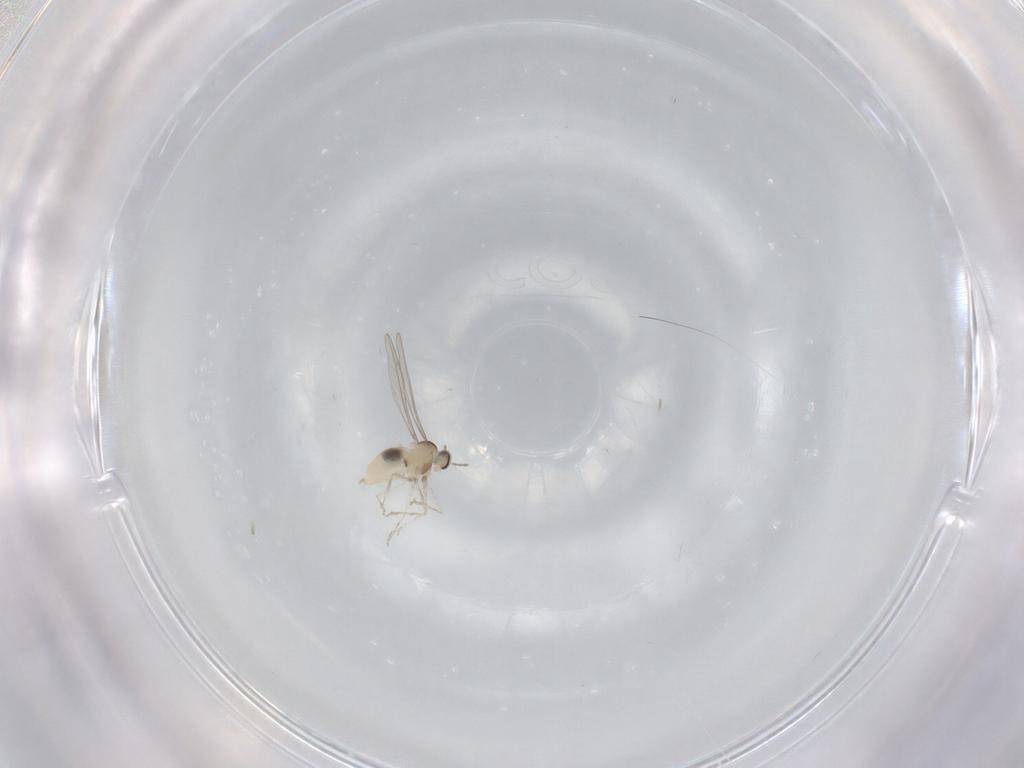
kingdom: Animalia
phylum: Arthropoda
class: Insecta
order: Diptera
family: Cecidomyiidae
